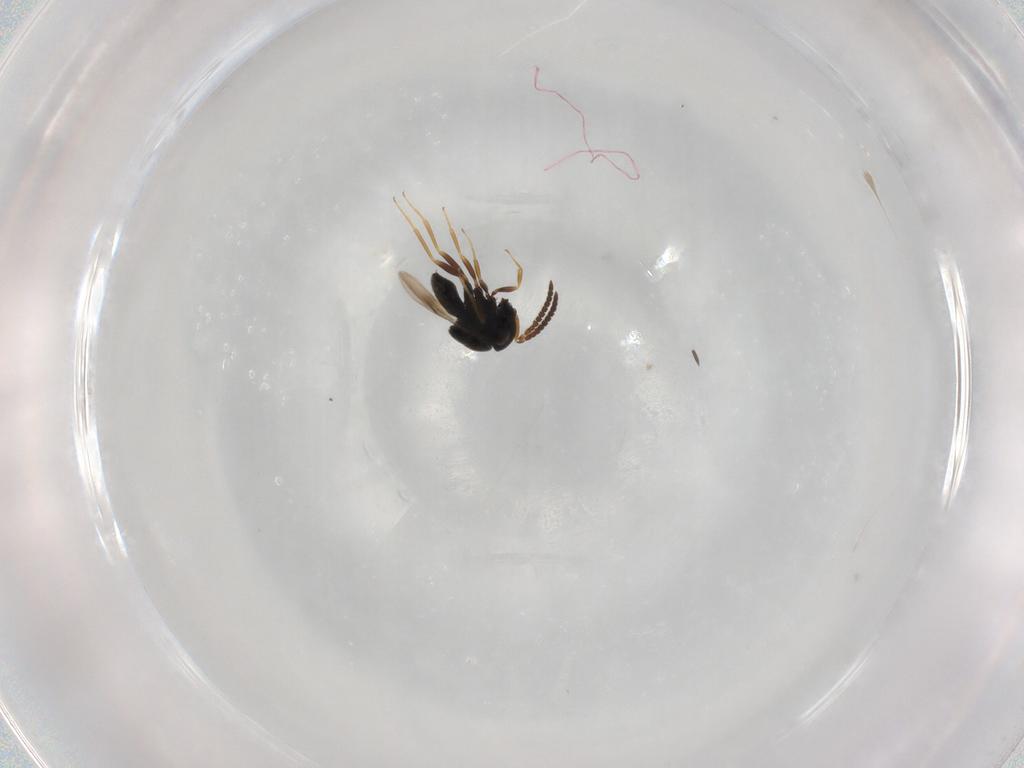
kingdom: Animalia
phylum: Arthropoda
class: Insecta
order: Hymenoptera
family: Scelionidae
